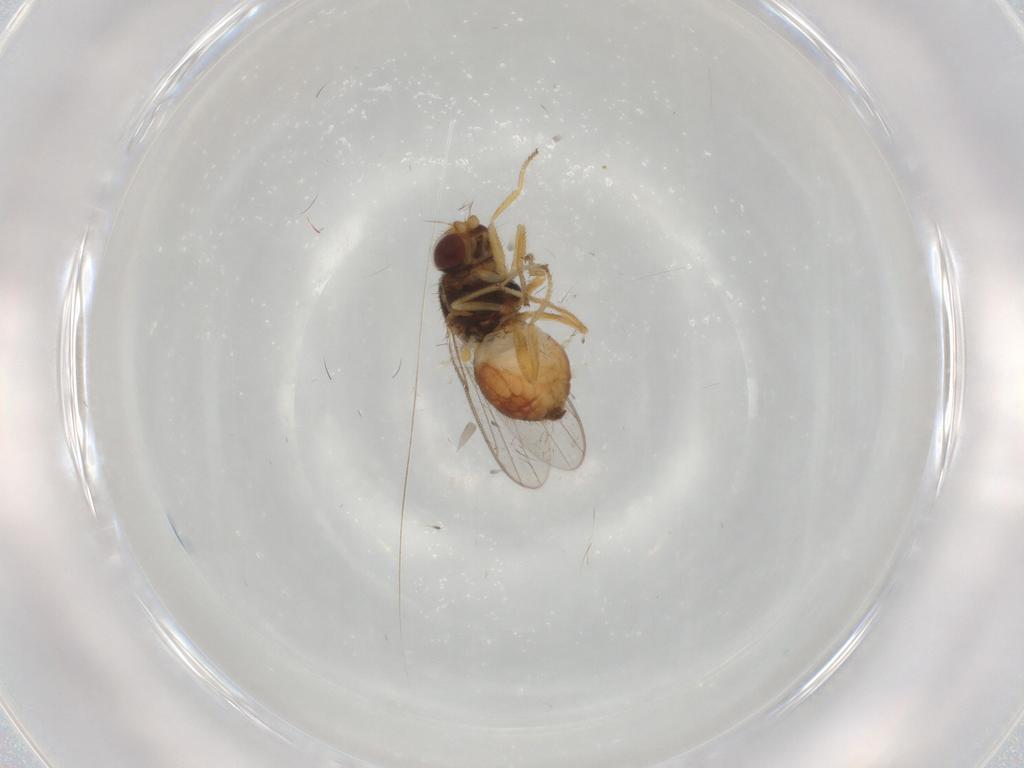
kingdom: Animalia
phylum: Arthropoda
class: Insecta
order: Diptera
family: Chloropidae
